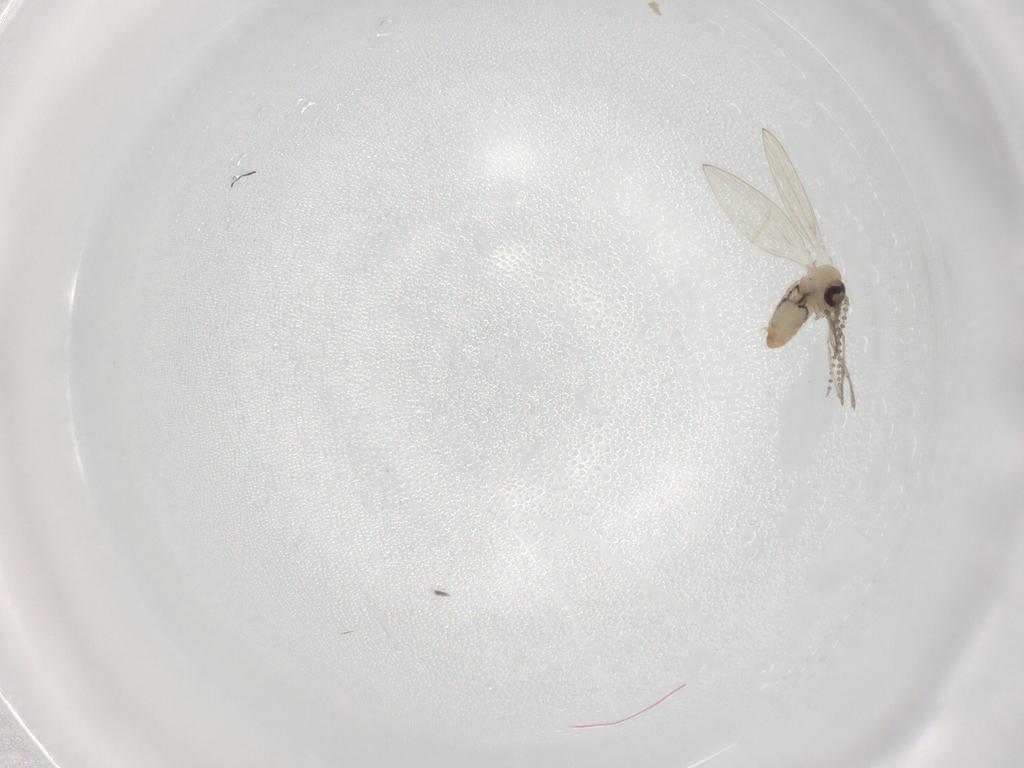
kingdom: Animalia
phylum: Arthropoda
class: Insecta
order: Diptera
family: Psychodidae
